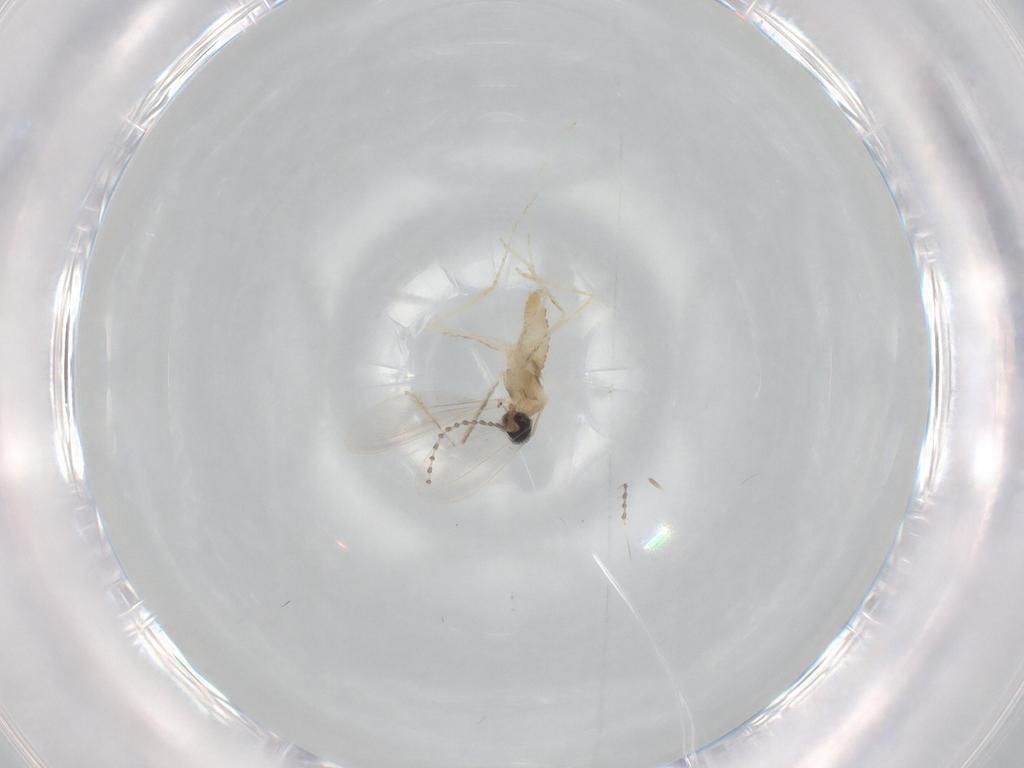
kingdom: Animalia
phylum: Arthropoda
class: Insecta
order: Diptera
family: Cecidomyiidae
